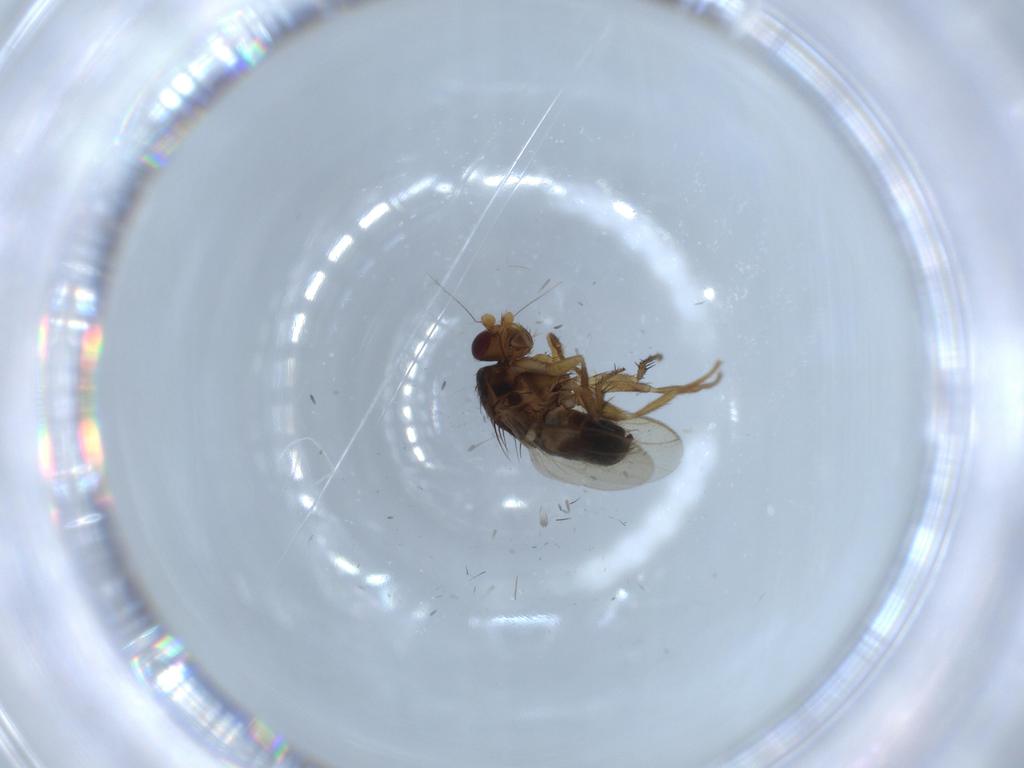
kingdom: Animalia
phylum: Arthropoda
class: Insecta
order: Diptera
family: Sphaeroceridae
